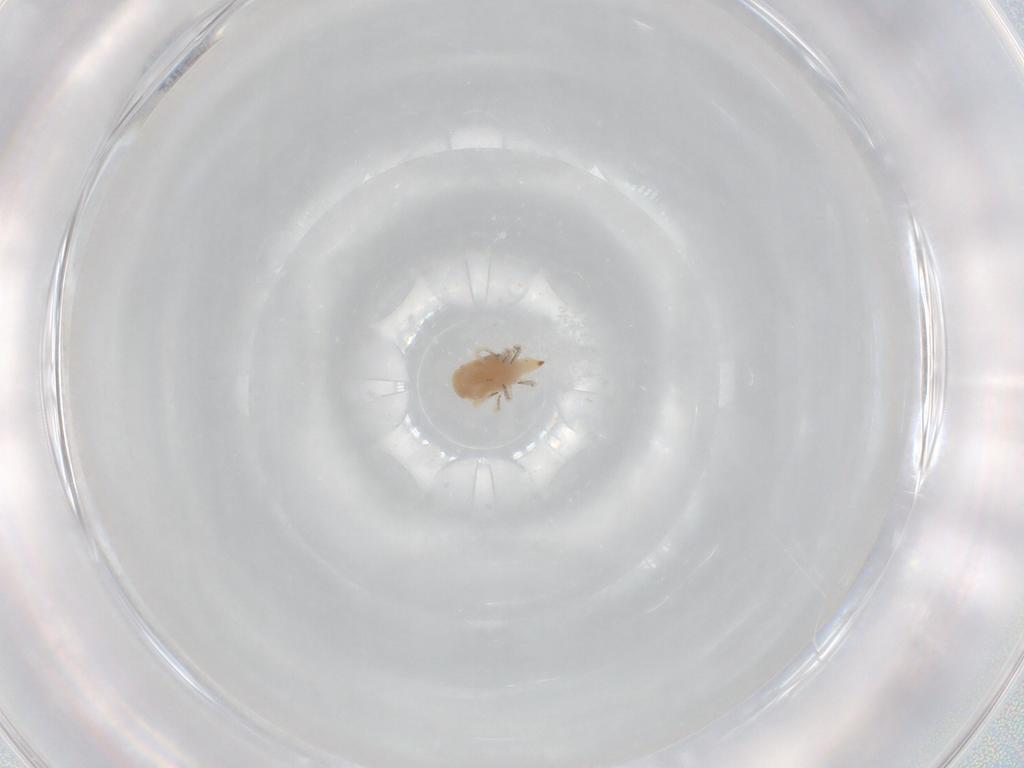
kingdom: Animalia
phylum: Arthropoda
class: Arachnida
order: Trombidiformes
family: Bdellidae
